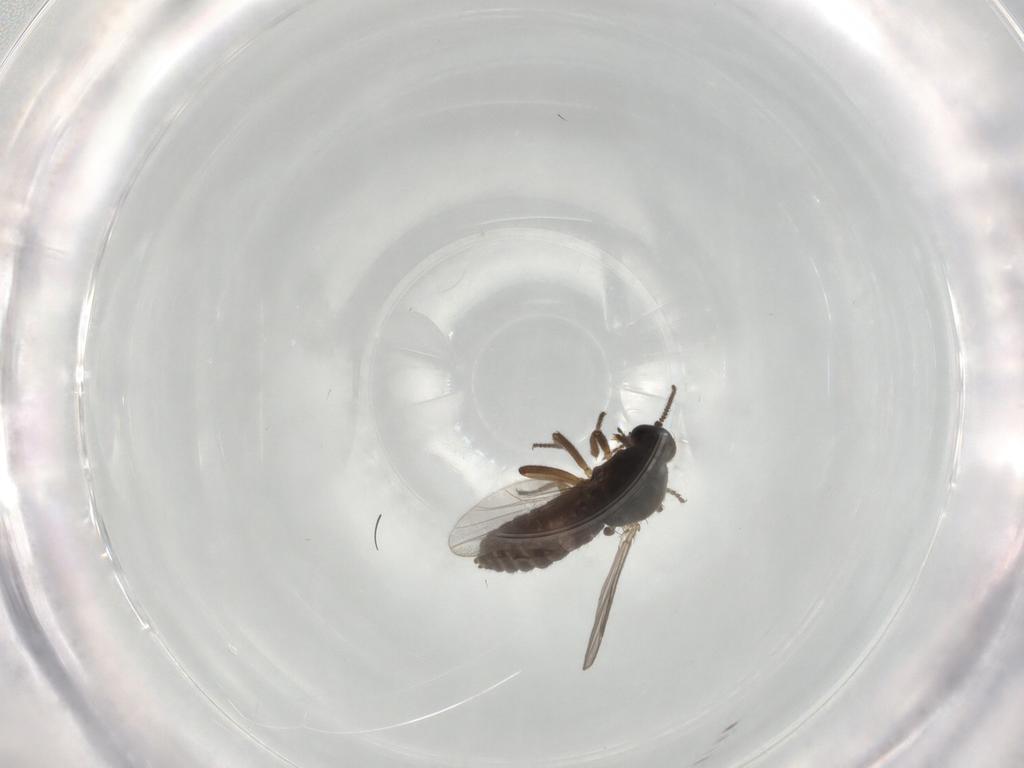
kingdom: Animalia
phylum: Arthropoda
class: Insecta
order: Diptera
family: Ceratopogonidae
